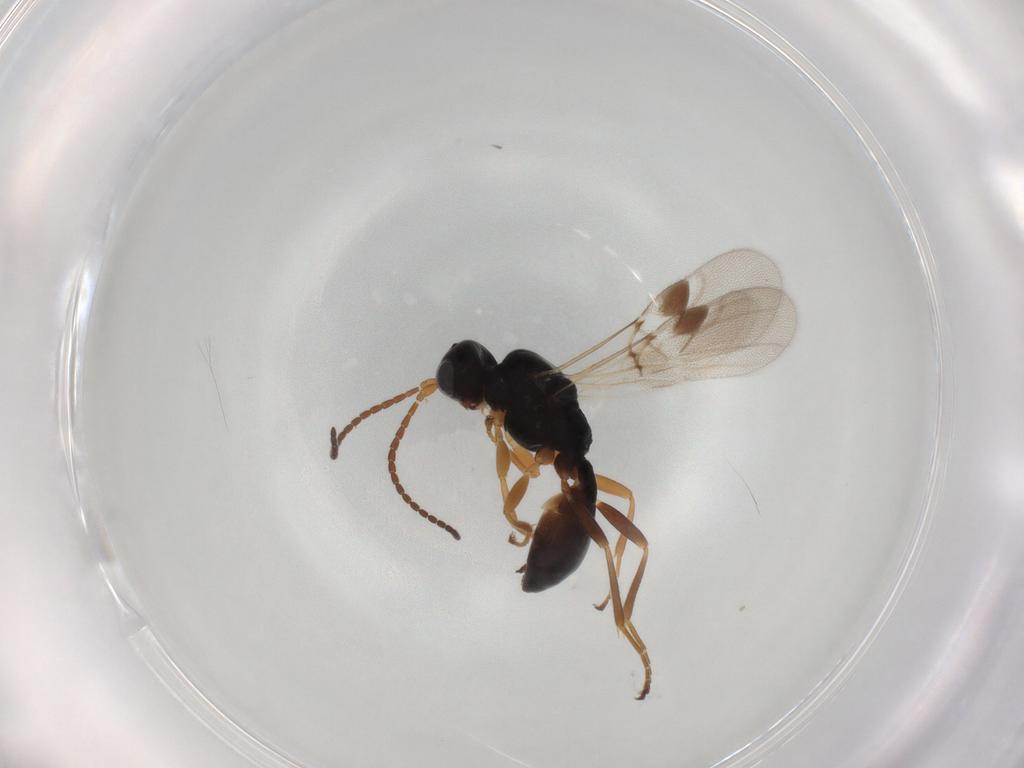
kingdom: Animalia
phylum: Arthropoda
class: Insecta
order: Hymenoptera
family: Braconidae
